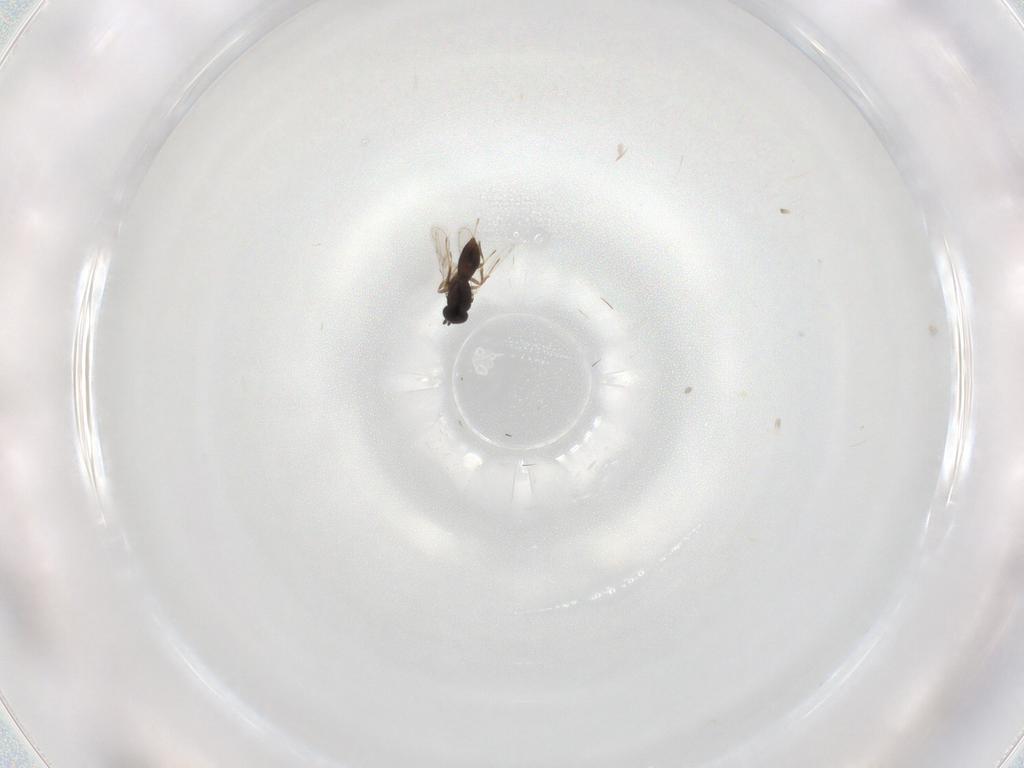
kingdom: Animalia
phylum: Arthropoda
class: Insecta
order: Hymenoptera
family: Scelionidae
